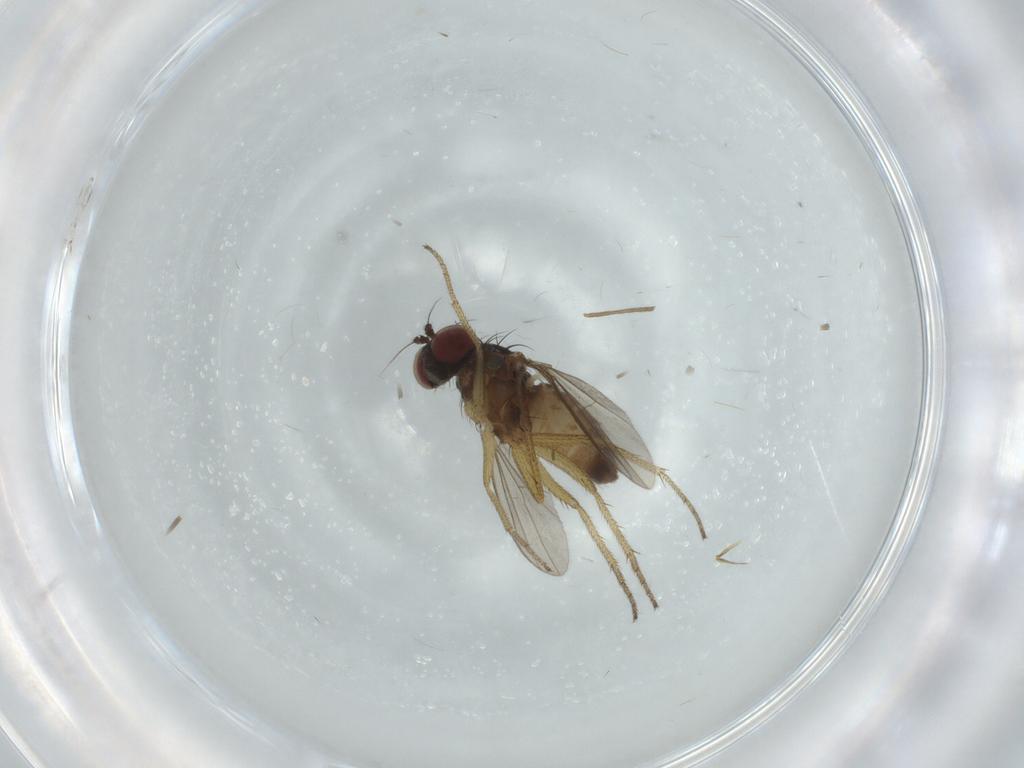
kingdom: Animalia
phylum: Arthropoda
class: Insecta
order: Diptera
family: Dolichopodidae
